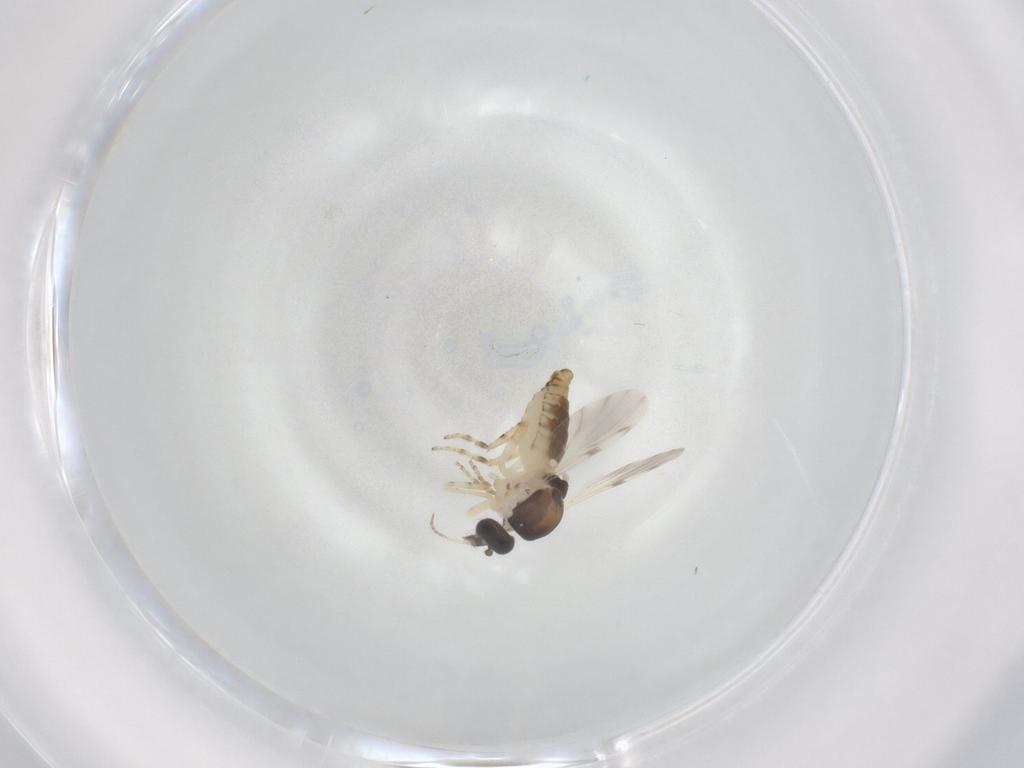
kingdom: Animalia
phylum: Arthropoda
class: Insecta
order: Diptera
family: Ceratopogonidae
